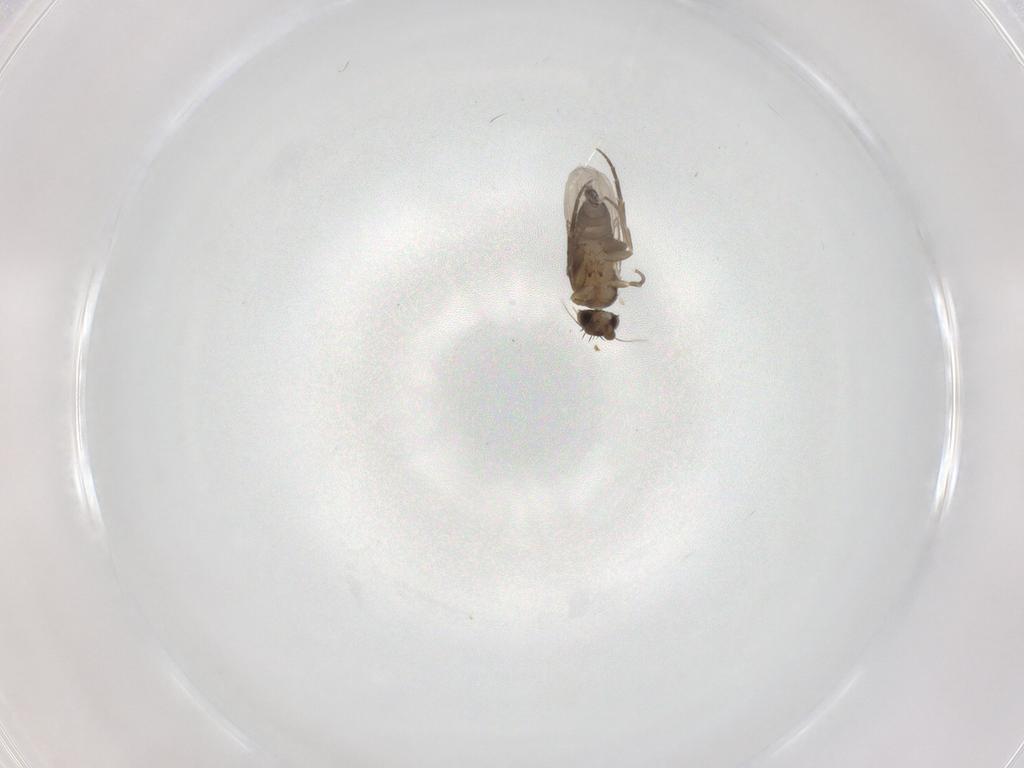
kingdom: Animalia
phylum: Arthropoda
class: Insecta
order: Diptera
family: Phoridae
